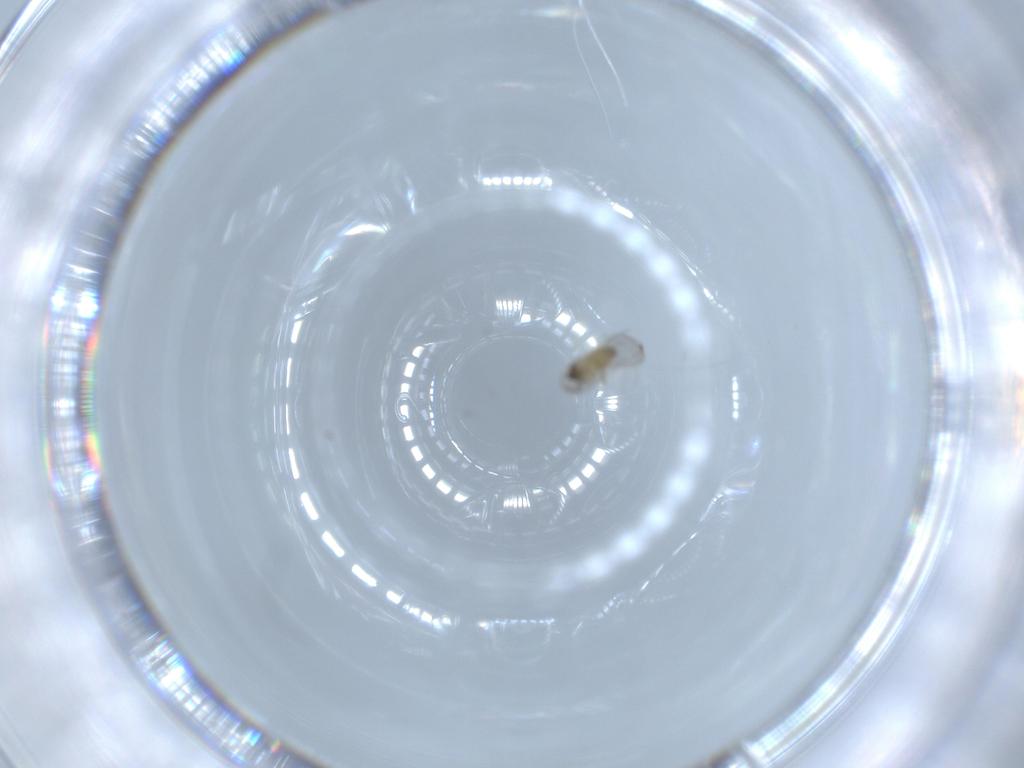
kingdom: Animalia
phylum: Arthropoda
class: Insecta
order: Diptera
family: Cecidomyiidae
